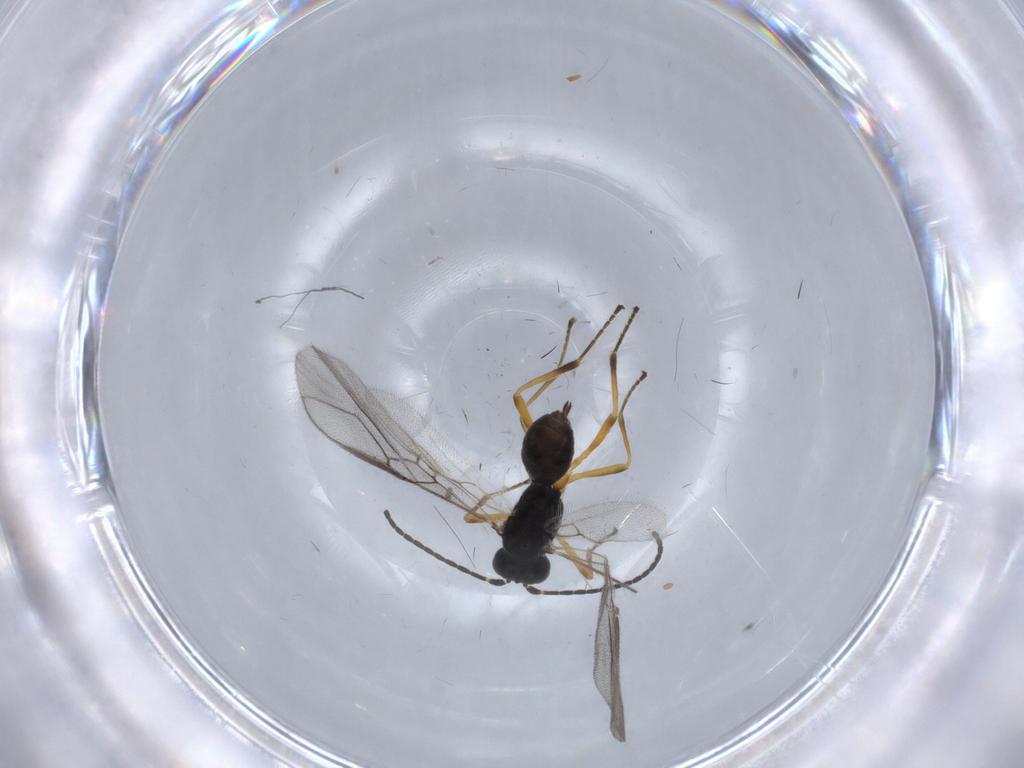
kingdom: Animalia
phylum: Arthropoda
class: Insecta
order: Hymenoptera
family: Braconidae
